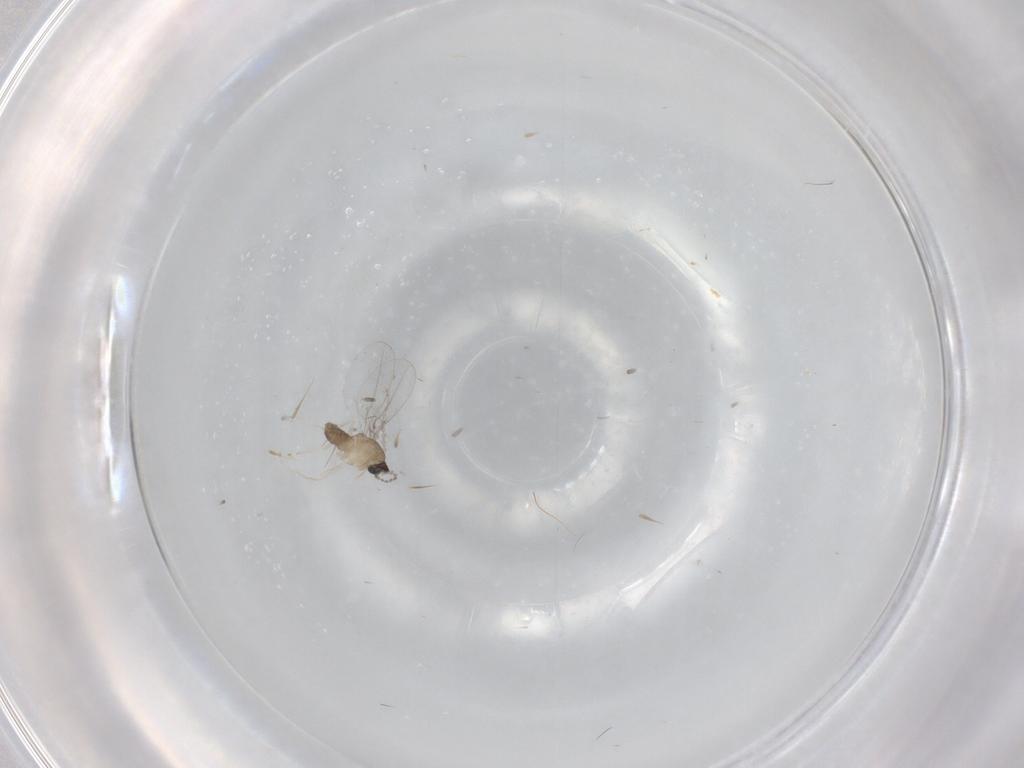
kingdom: Animalia
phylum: Arthropoda
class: Insecta
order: Diptera
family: Cecidomyiidae
